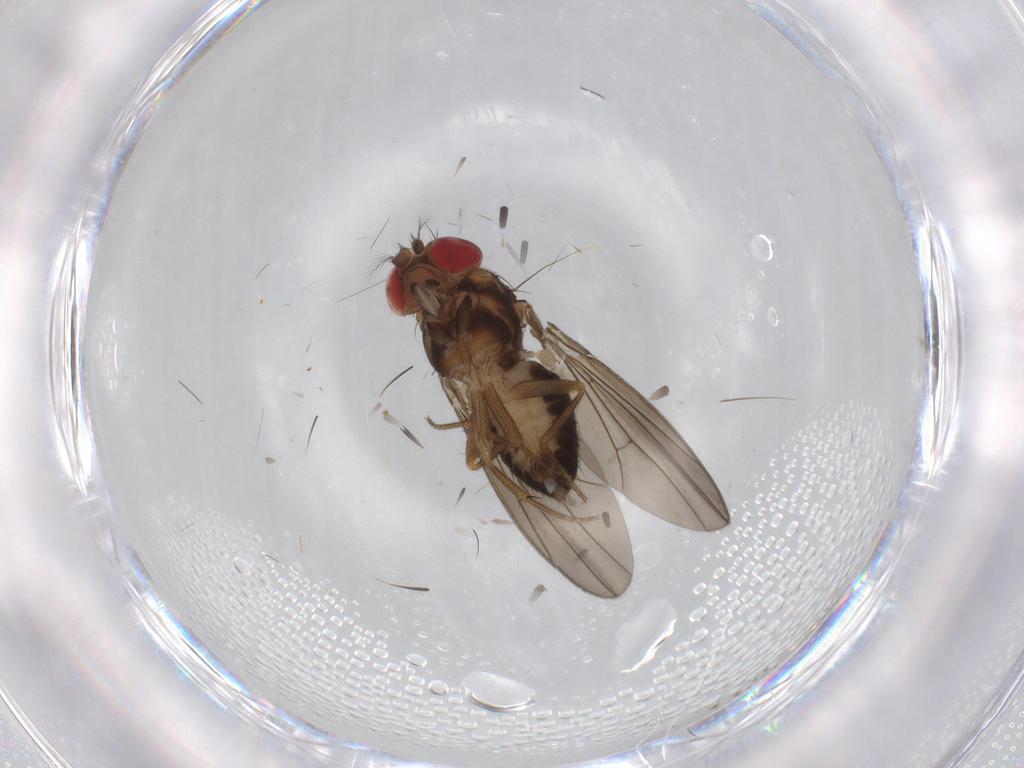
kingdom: Animalia
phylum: Arthropoda
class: Insecta
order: Diptera
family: Drosophilidae
